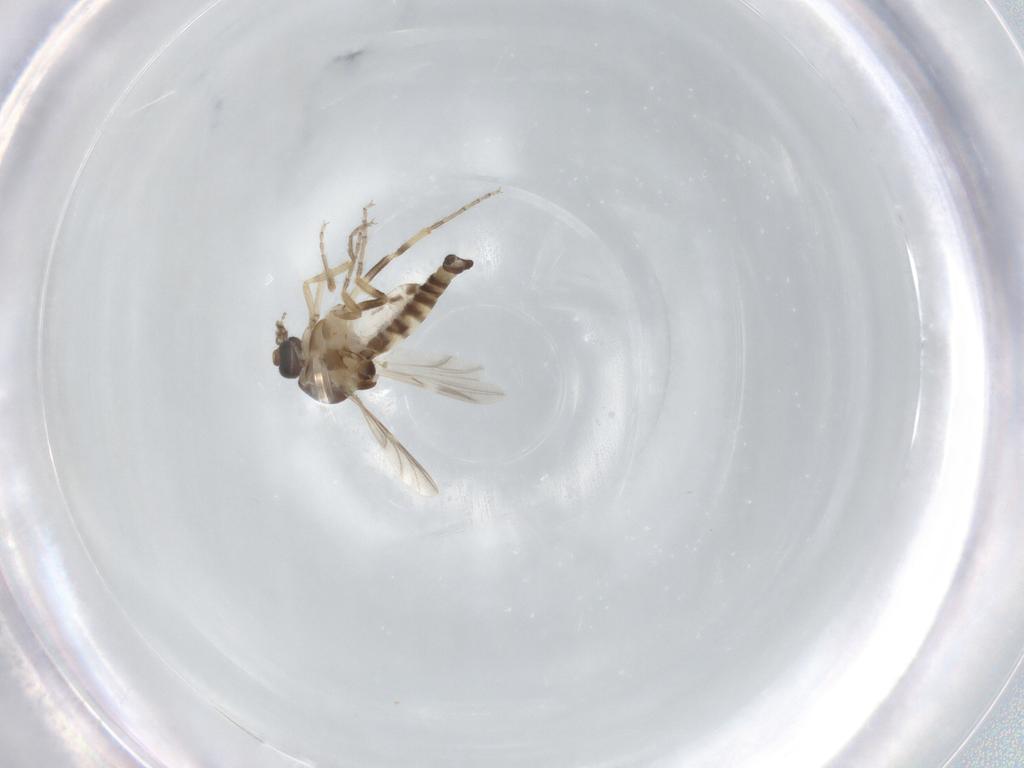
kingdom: Animalia
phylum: Arthropoda
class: Insecta
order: Diptera
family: Ceratopogonidae
